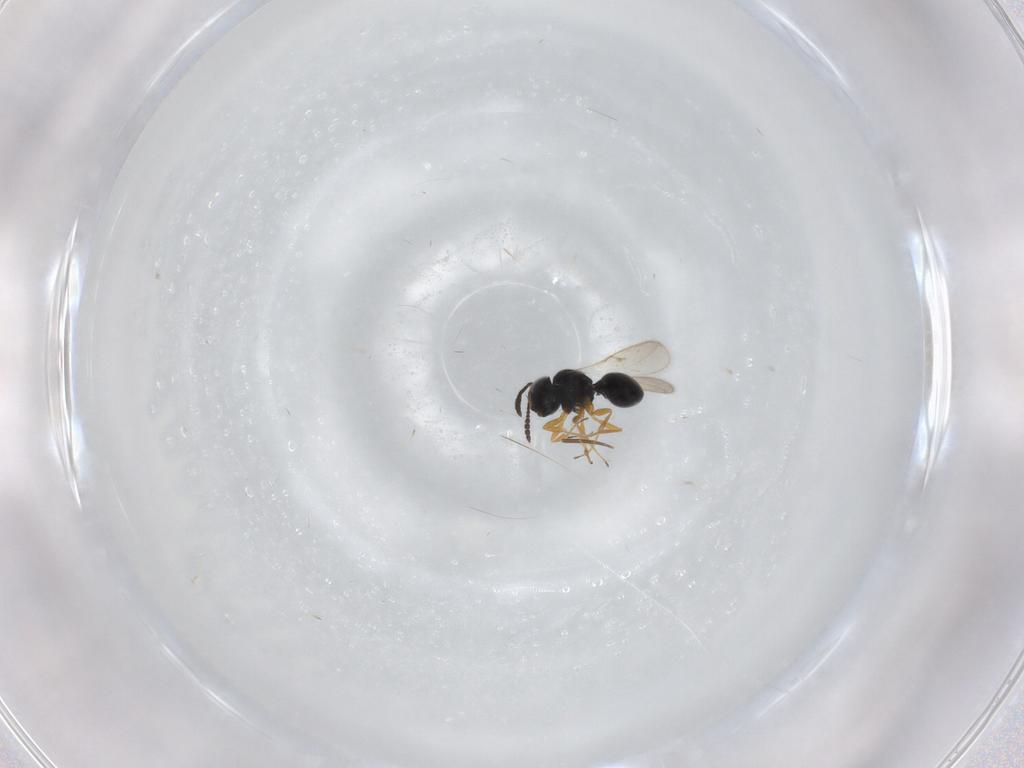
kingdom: Animalia
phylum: Arthropoda
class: Insecta
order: Hymenoptera
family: Scelionidae
